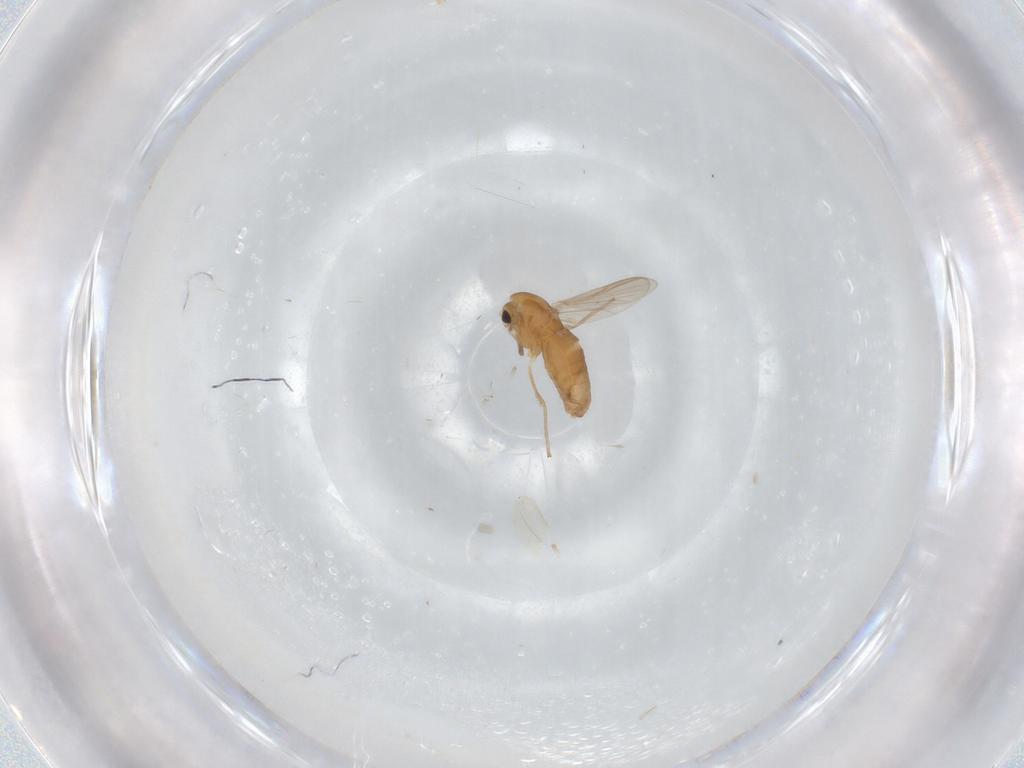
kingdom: Animalia
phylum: Arthropoda
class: Insecta
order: Diptera
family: Chironomidae
